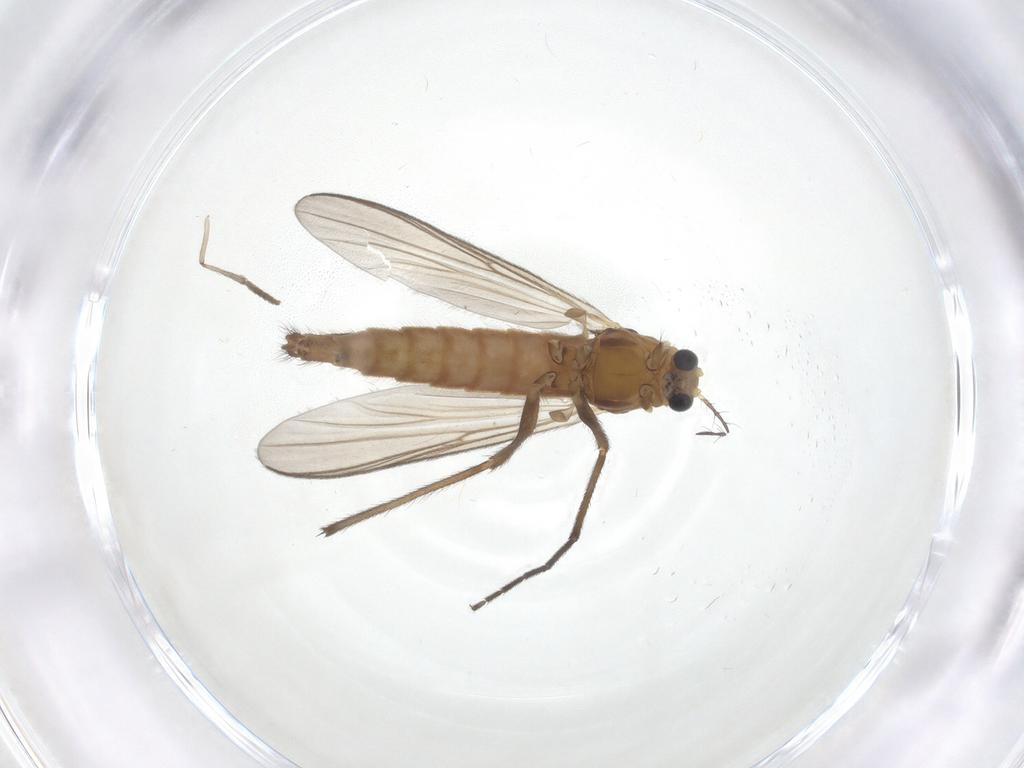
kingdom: Animalia
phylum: Arthropoda
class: Insecta
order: Diptera
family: Chironomidae
